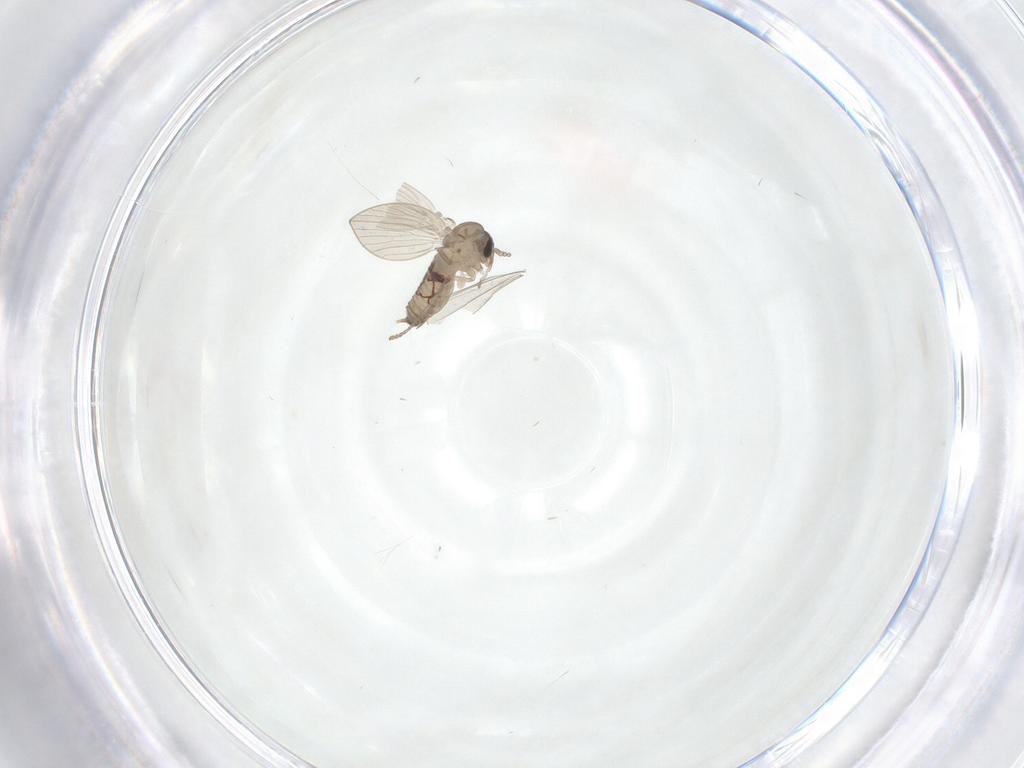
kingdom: Animalia
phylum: Arthropoda
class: Insecta
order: Diptera
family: Psychodidae
